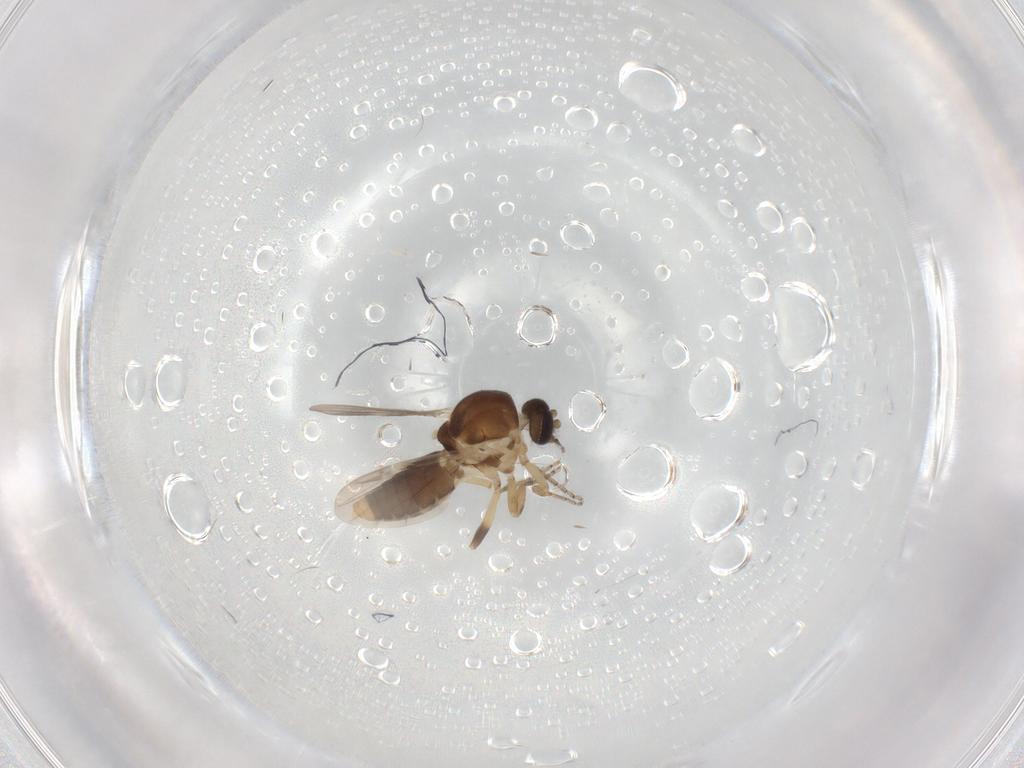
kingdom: Animalia
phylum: Arthropoda
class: Insecta
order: Diptera
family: Ceratopogonidae
